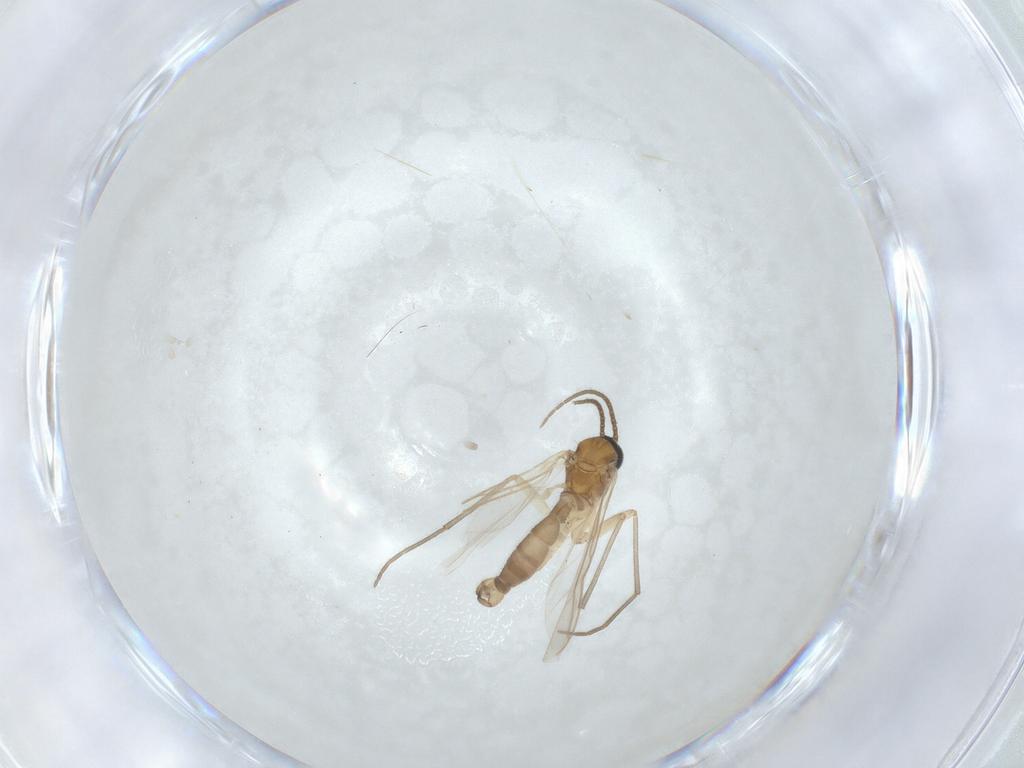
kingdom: Animalia
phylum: Arthropoda
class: Insecta
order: Diptera
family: Sciaridae
